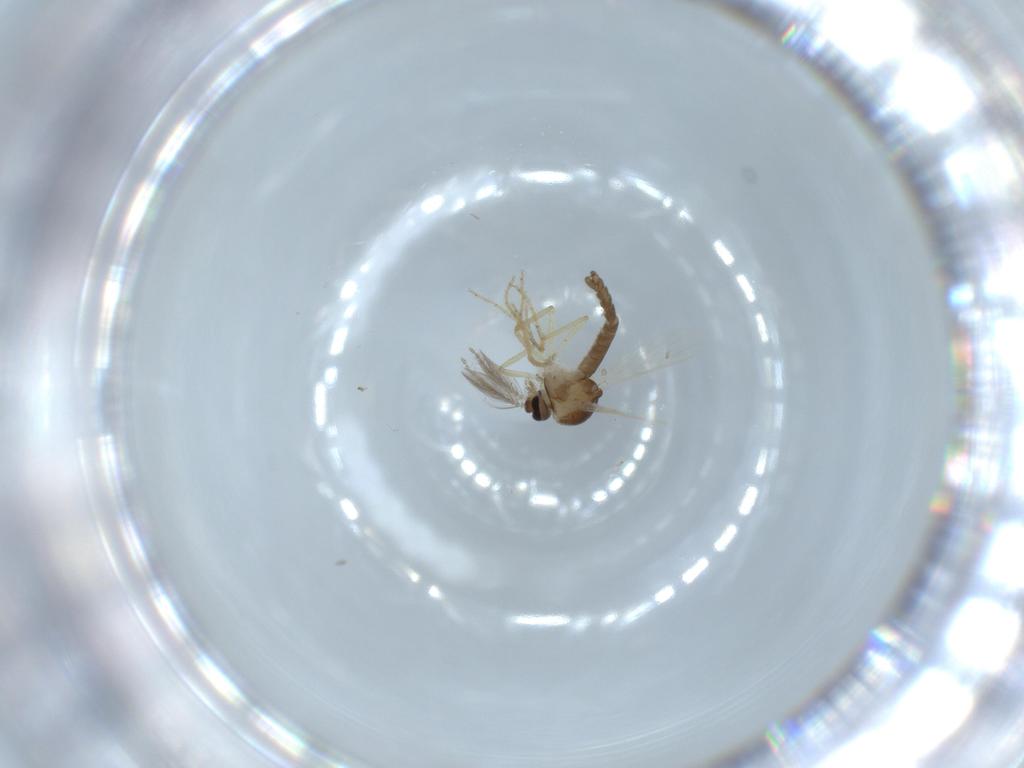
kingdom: Animalia
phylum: Arthropoda
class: Insecta
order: Diptera
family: Ceratopogonidae
